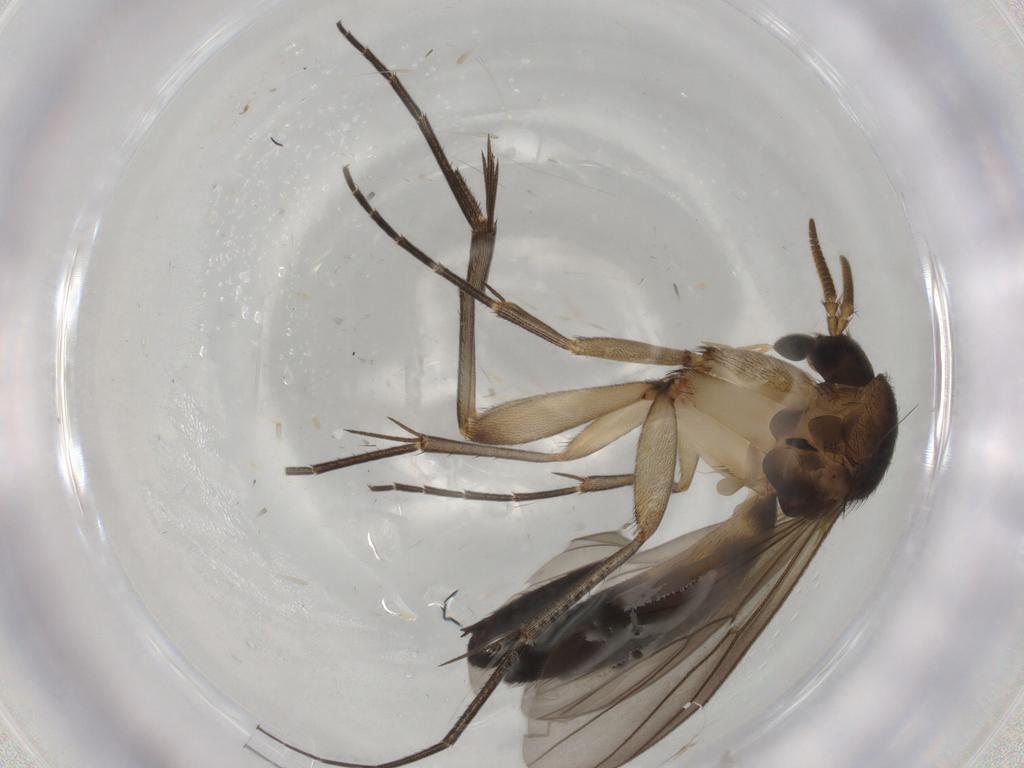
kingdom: Animalia
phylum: Arthropoda
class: Insecta
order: Diptera
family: Mycetophilidae
